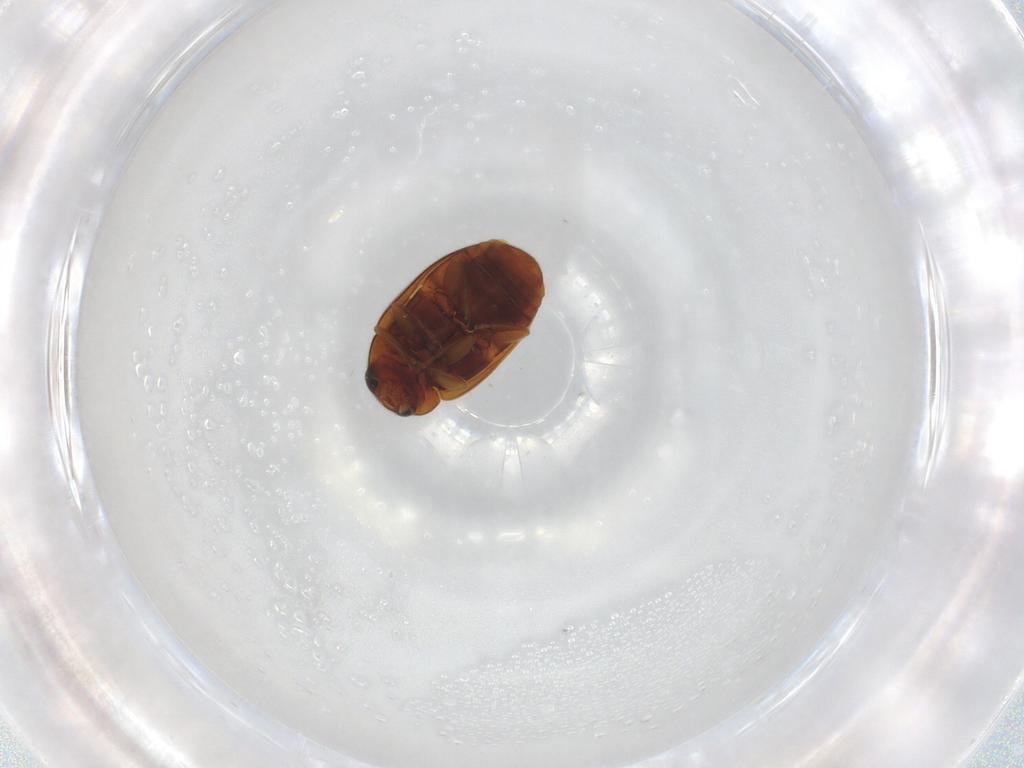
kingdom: Animalia
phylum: Arthropoda
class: Insecta
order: Coleoptera
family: Coccinellidae
